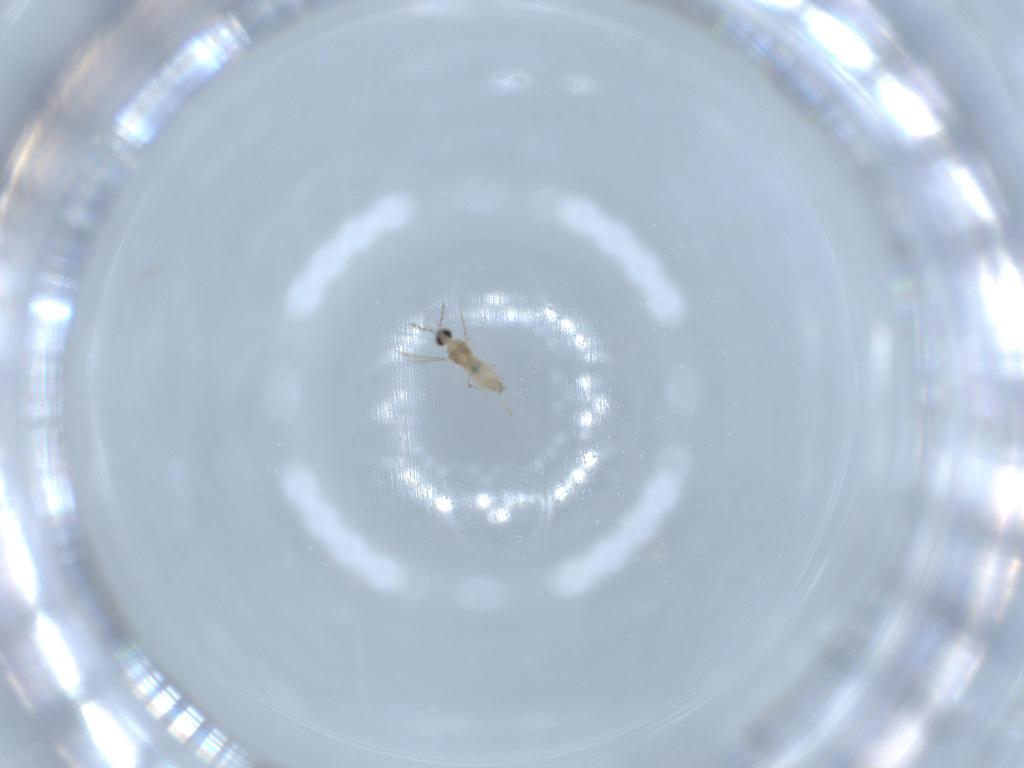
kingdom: Animalia
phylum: Arthropoda
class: Insecta
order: Diptera
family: Cecidomyiidae
